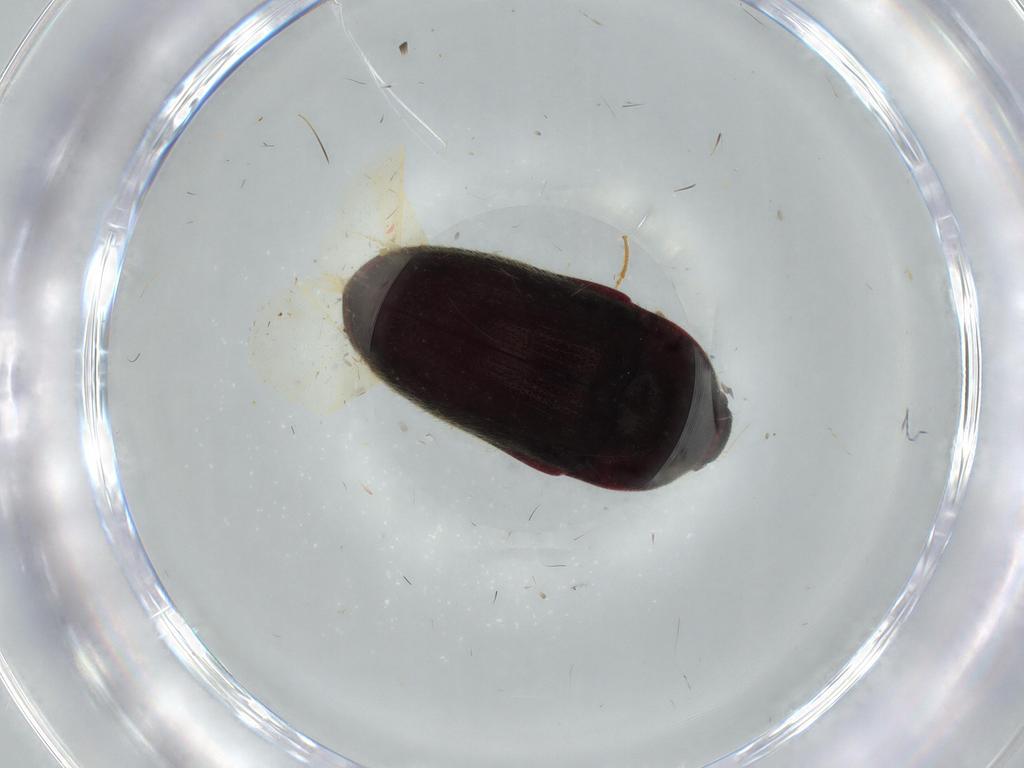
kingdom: Animalia
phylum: Arthropoda
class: Insecta
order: Coleoptera
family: Throscidae
